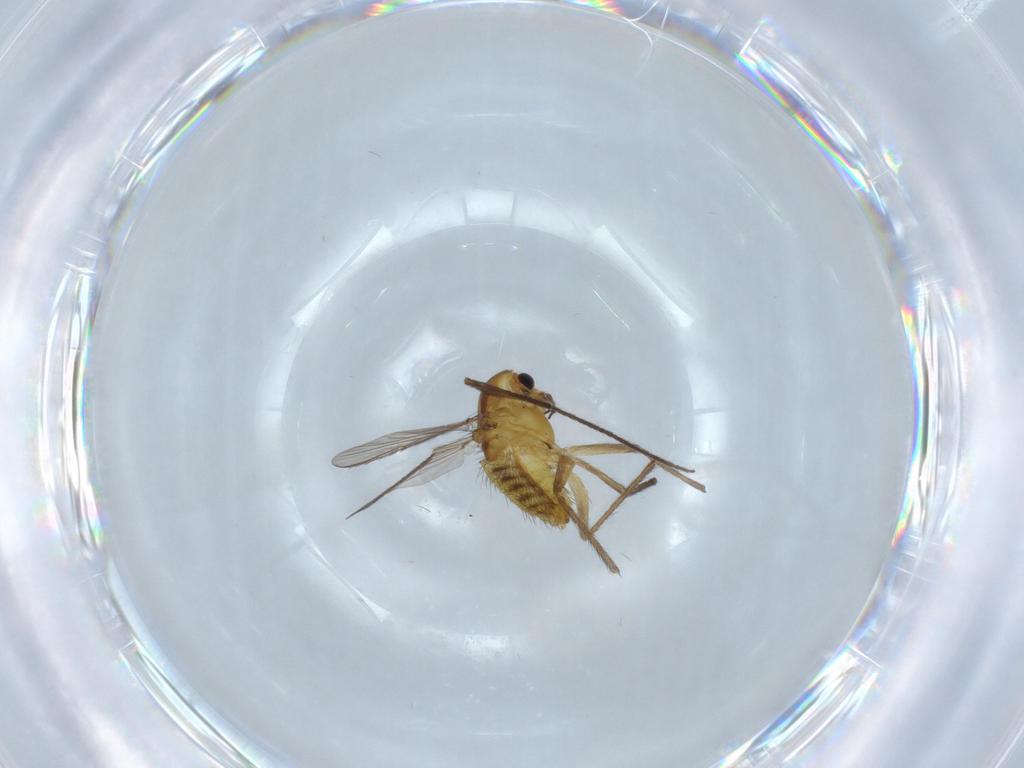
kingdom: Animalia
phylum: Arthropoda
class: Insecta
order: Diptera
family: Chironomidae
